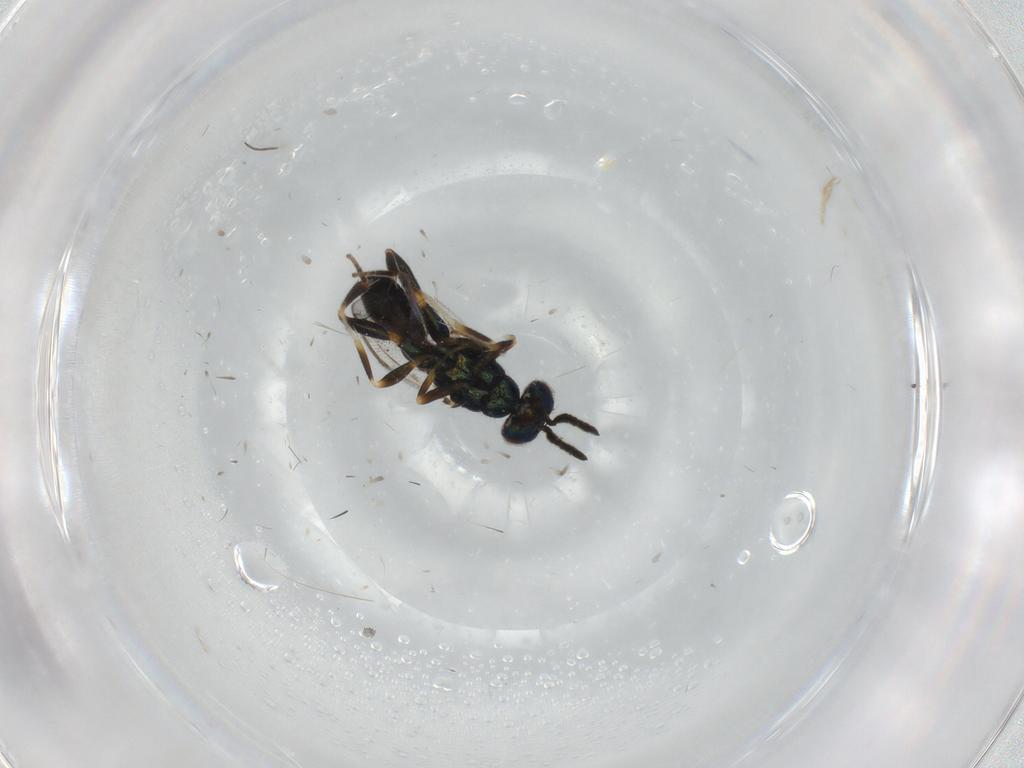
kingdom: Animalia
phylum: Arthropoda
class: Insecta
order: Hymenoptera
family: Cleonyminae
